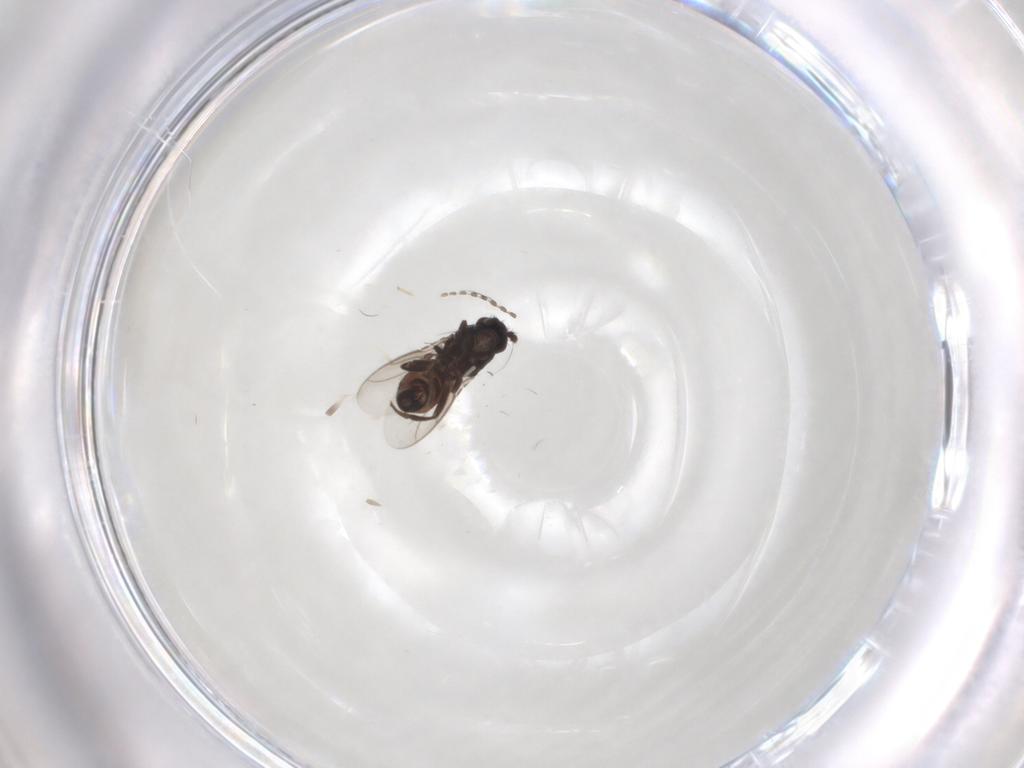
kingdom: Animalia
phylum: Arthropoda
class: Insecta
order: Diptera
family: Cecidomyiidae
